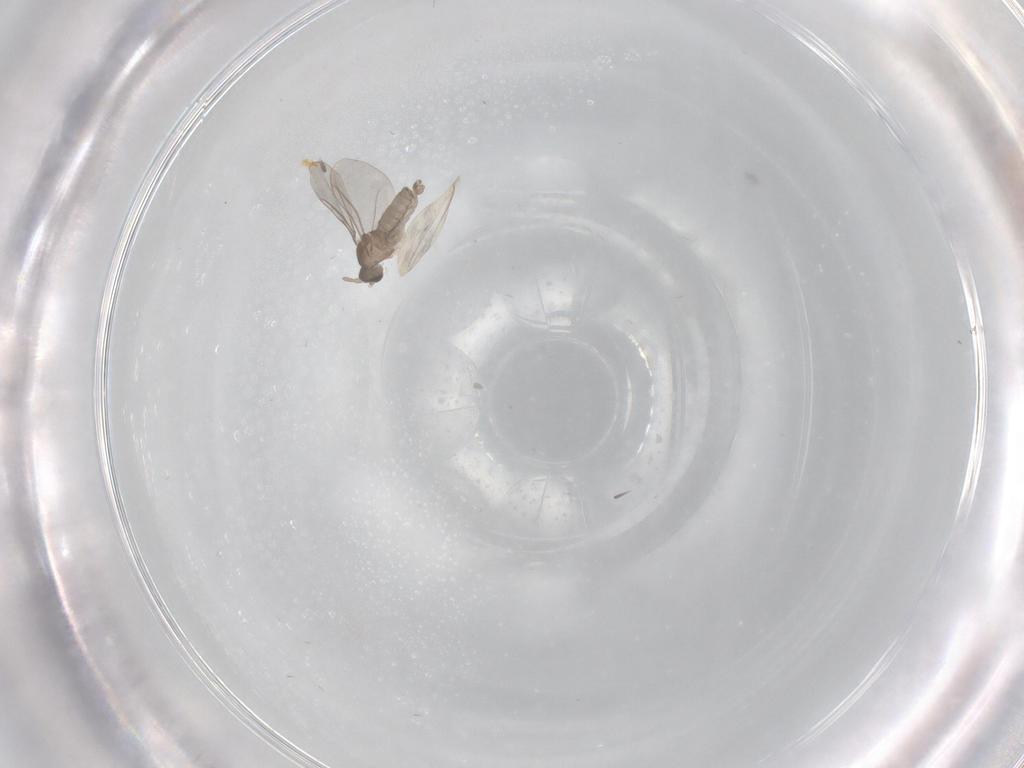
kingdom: Animalia
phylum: Arthropoda
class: Insecta
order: Diptera
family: Cecidomyiidae
